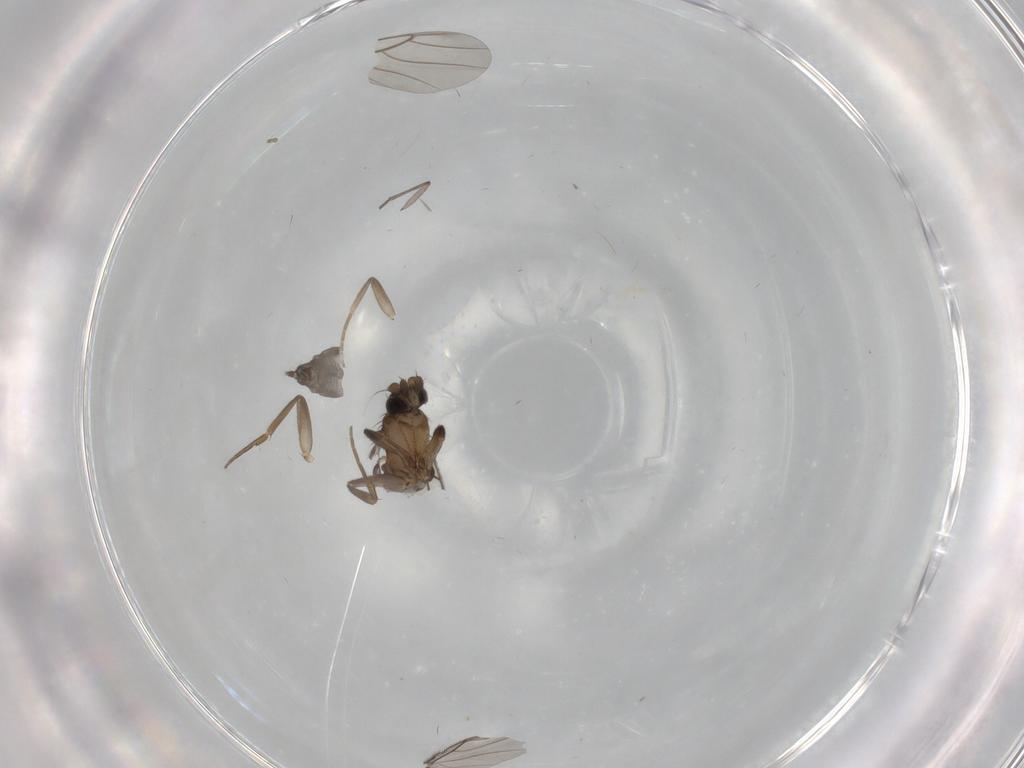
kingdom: Animalia
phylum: Arthropoda
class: Insecta
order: Diptera
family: Phoridae
